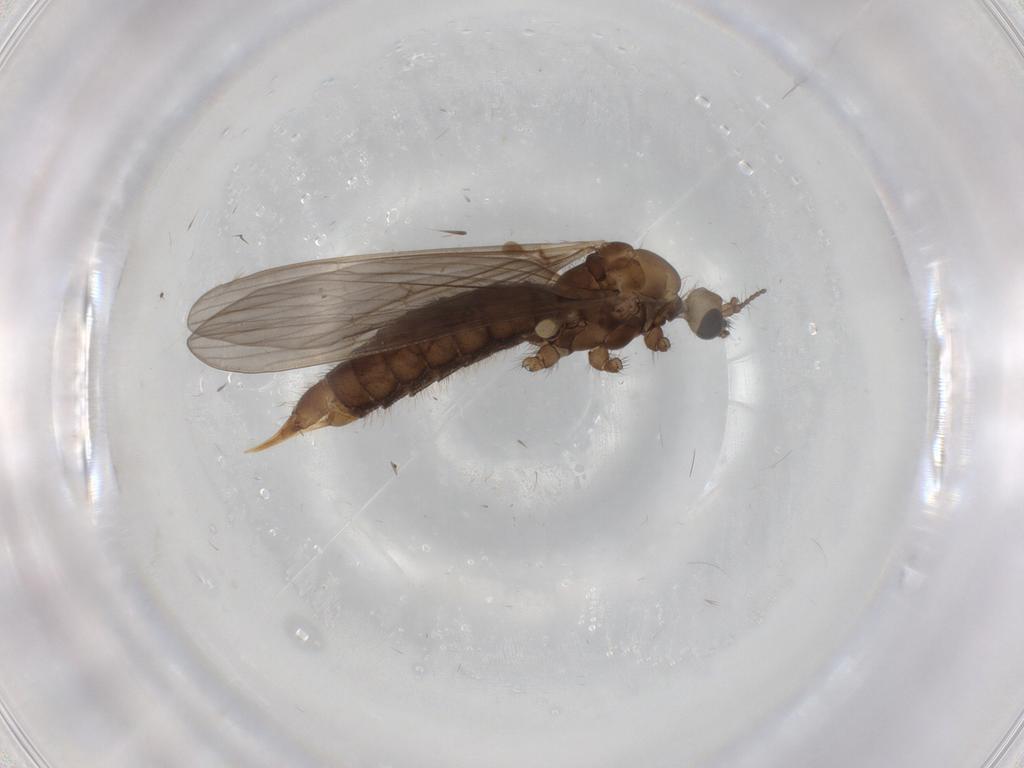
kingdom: Animalia
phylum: Arthropoda
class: Insecta
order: Diptera
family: Limoniidae
